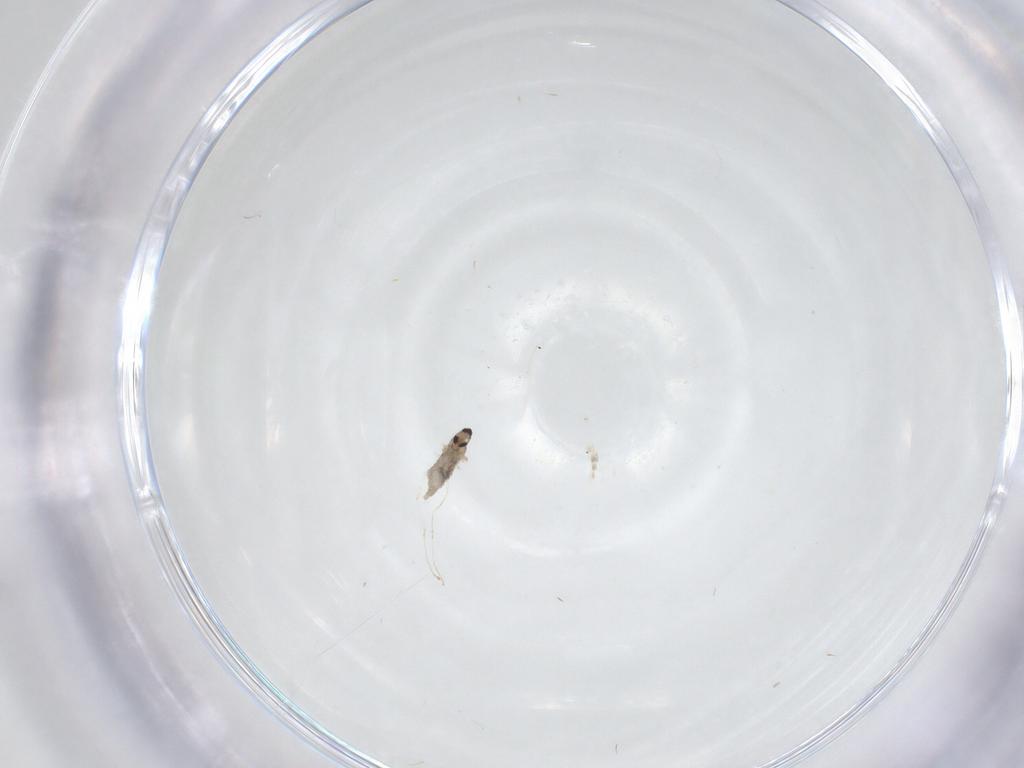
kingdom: Animalia
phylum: Arthropoda
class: Insecta
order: Diptera
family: Cecidomyiidae
